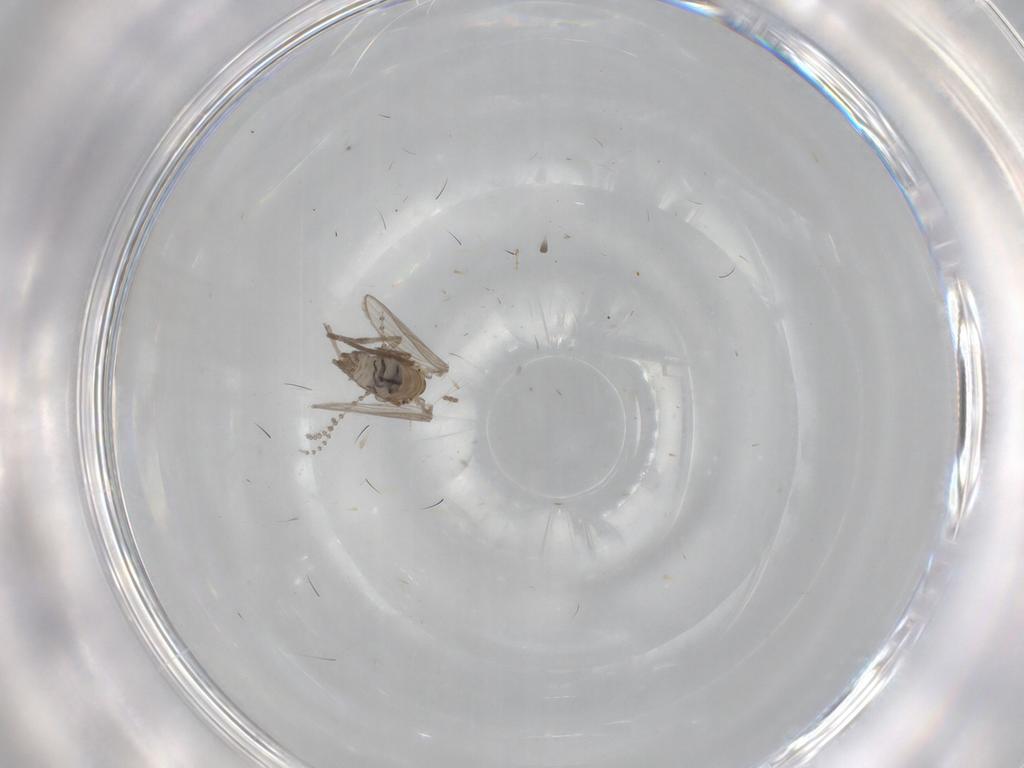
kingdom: Animalia
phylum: Arthropoda
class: Insecta
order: Diptera
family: Psychodidae
